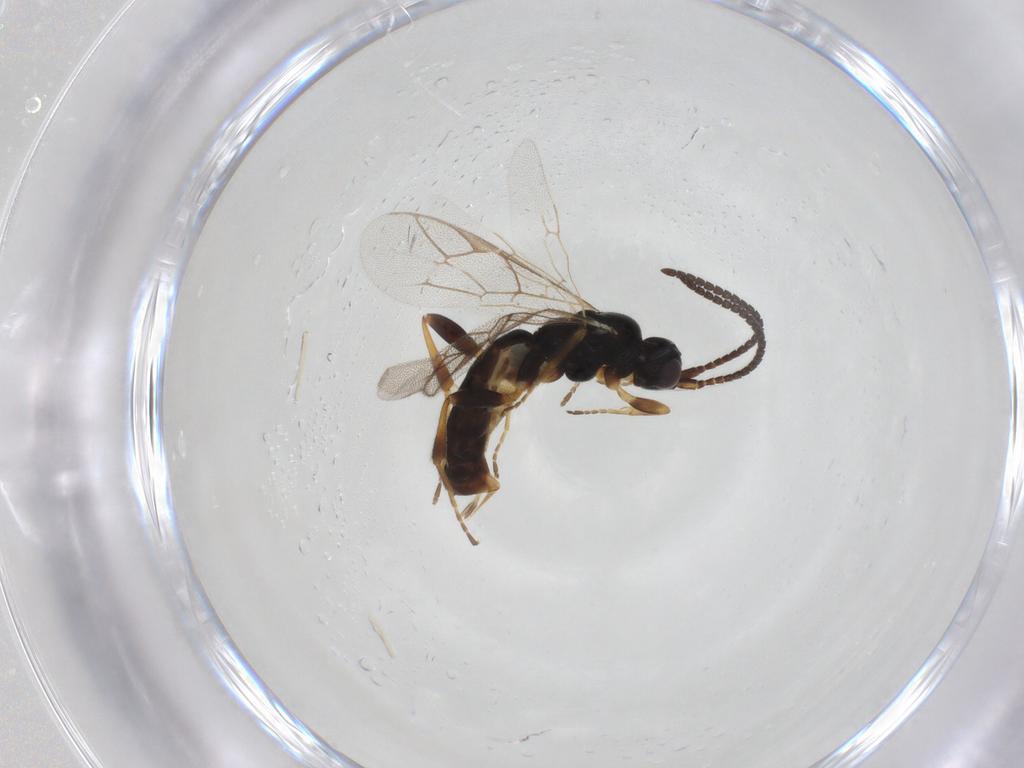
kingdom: Animalia
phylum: Arthropoda
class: Insecta
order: Hymenoptera
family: Ichneumonidae
